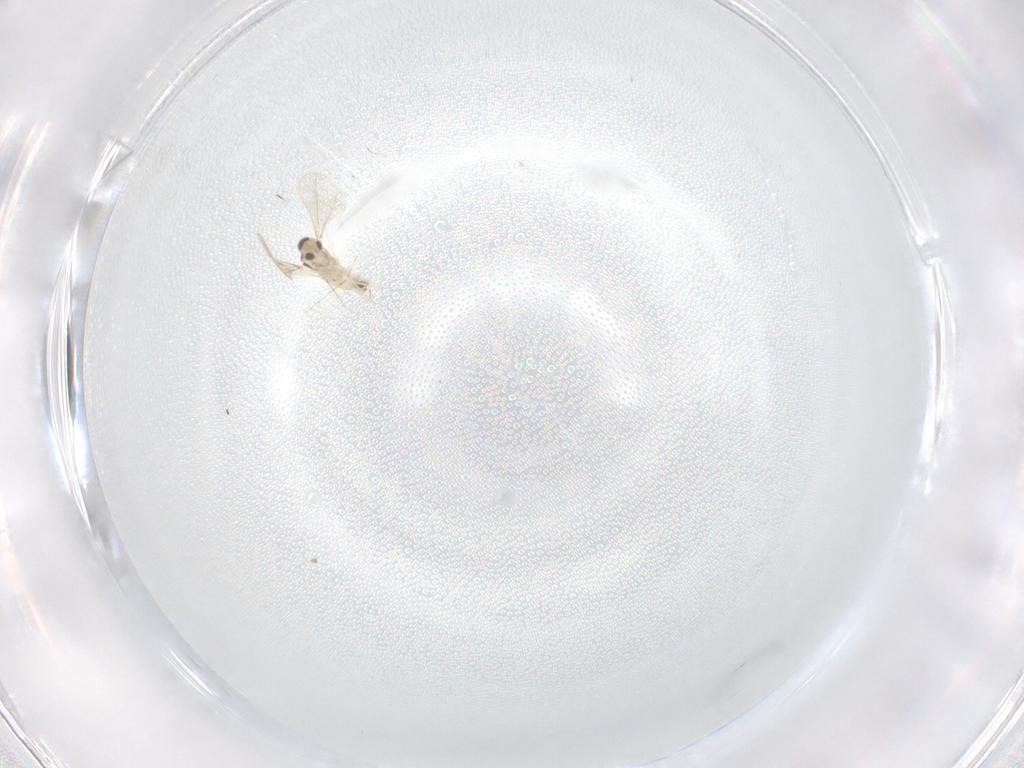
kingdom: Animalia
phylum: Arthropoda
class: Insecta
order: Diptera
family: Cecidomyiidae
